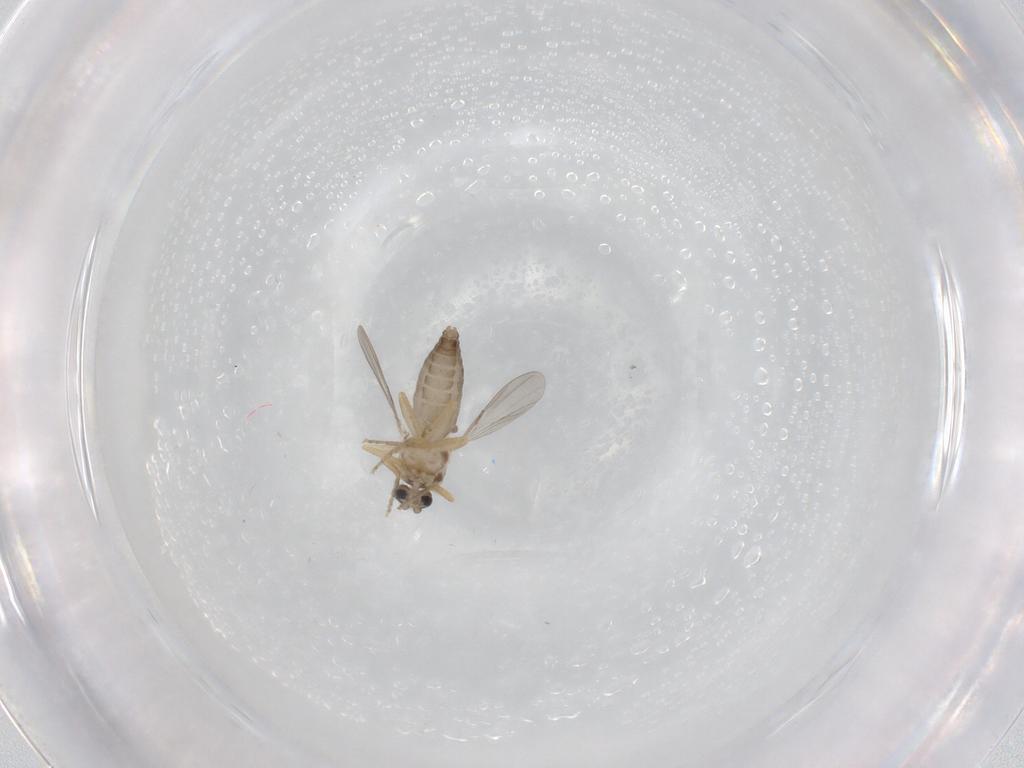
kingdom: Animalia
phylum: Arthropoda
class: Insecta
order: Diptera
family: Ceratopogonidae
